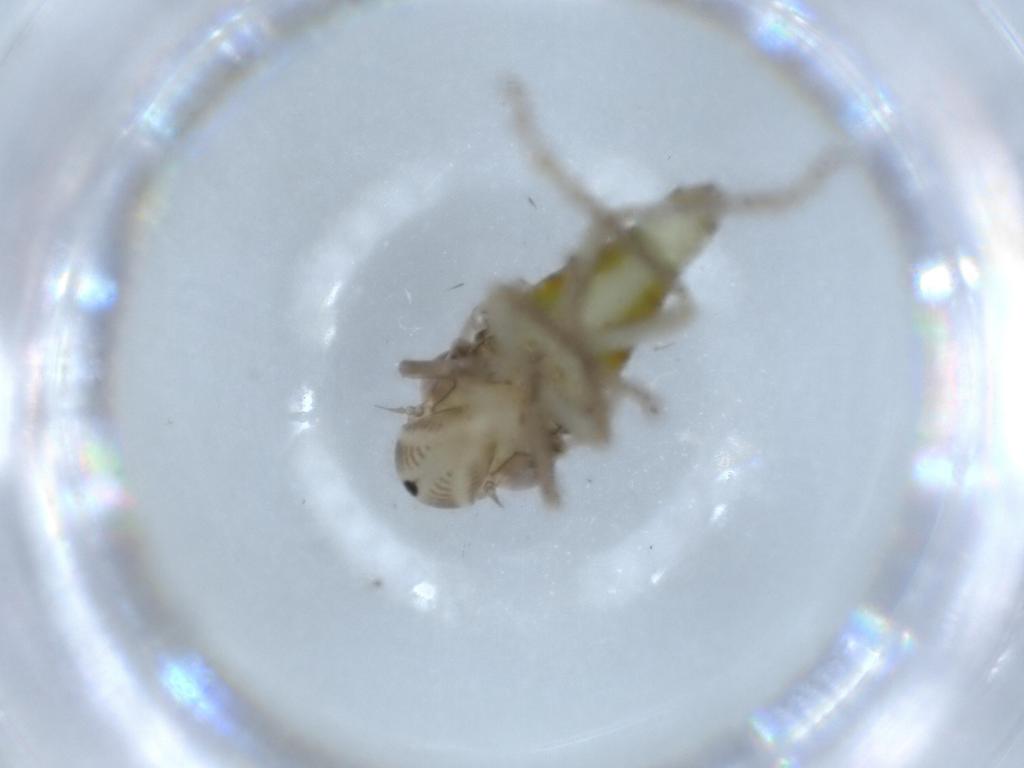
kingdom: Animalia
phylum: Arthropoda
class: Insecta
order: Hemiptera
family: Cicadellidae
